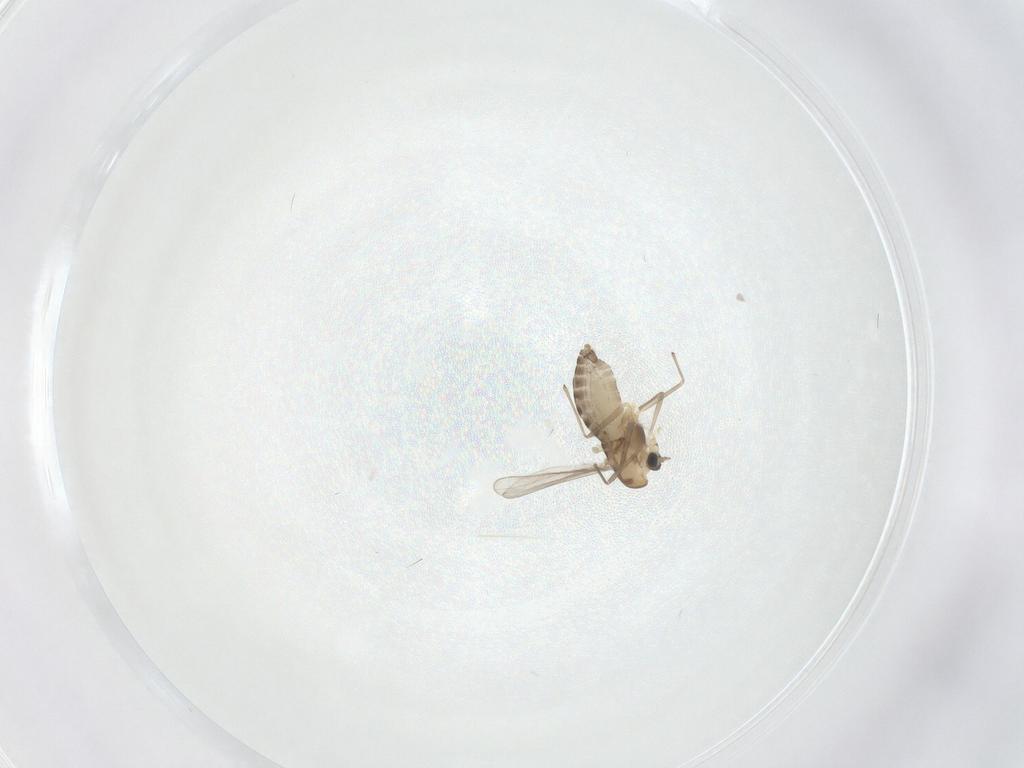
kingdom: Animalia
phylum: Arthropoda
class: Insecta
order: Diptera
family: Chironomidae
